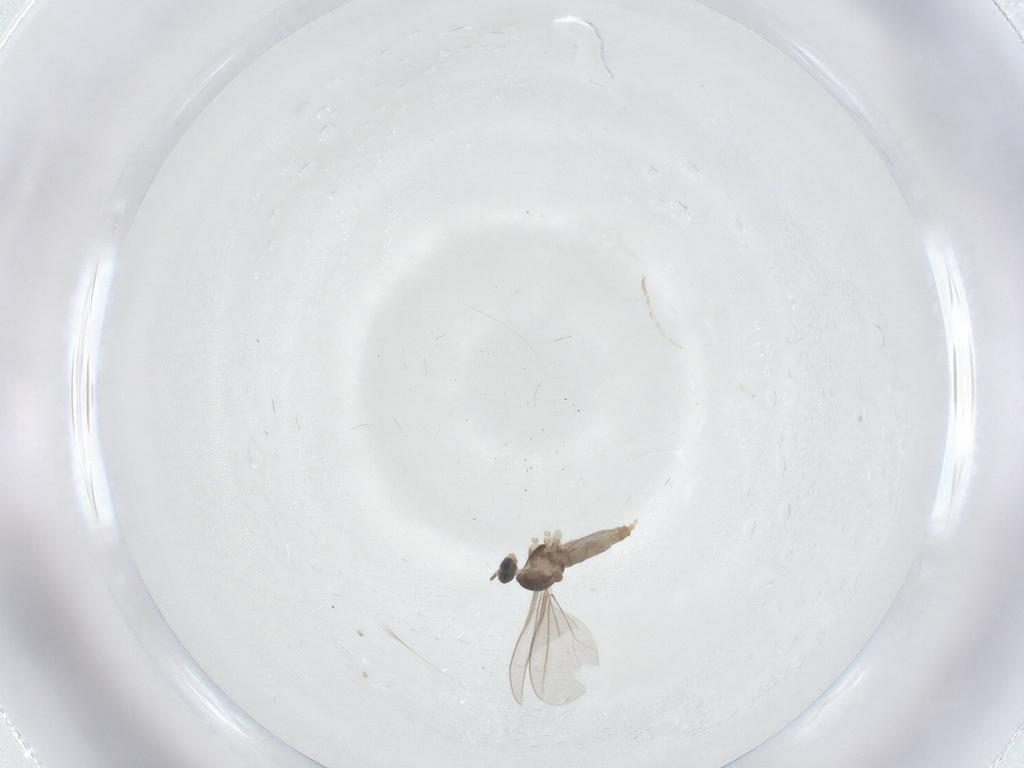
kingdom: Animalia
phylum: Arthropoda
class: Insecta
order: Diptera
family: Cecidomyiidae
